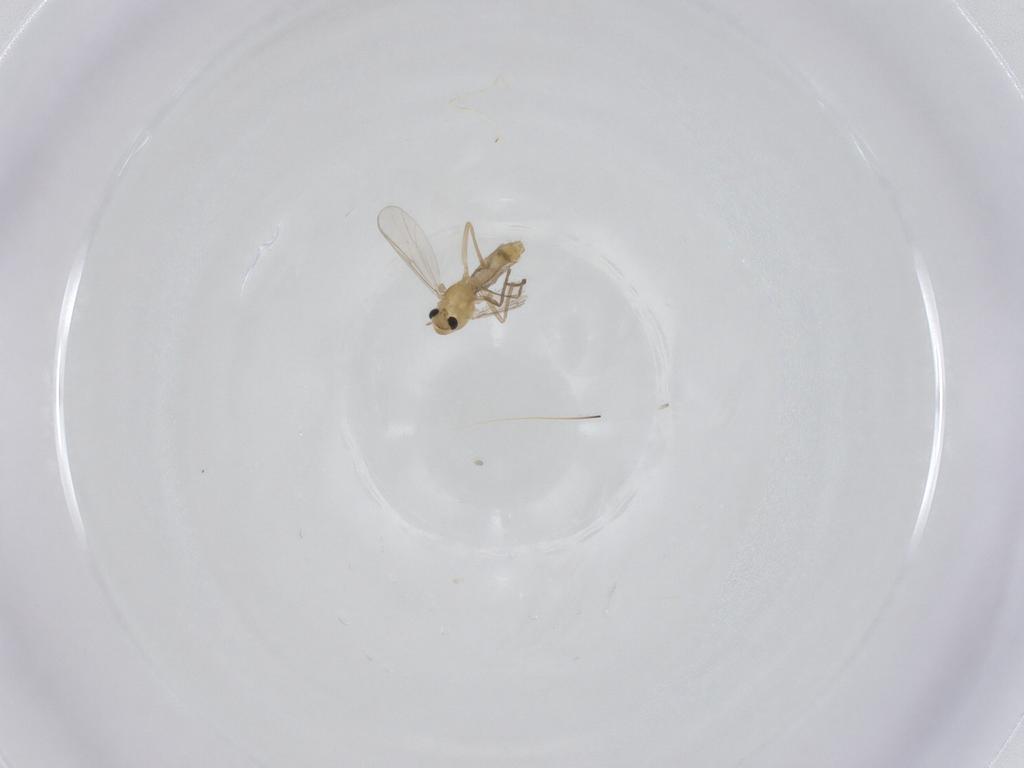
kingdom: Animalia
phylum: Arthropoda
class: Insecta
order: Diptera
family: Chironomidae
